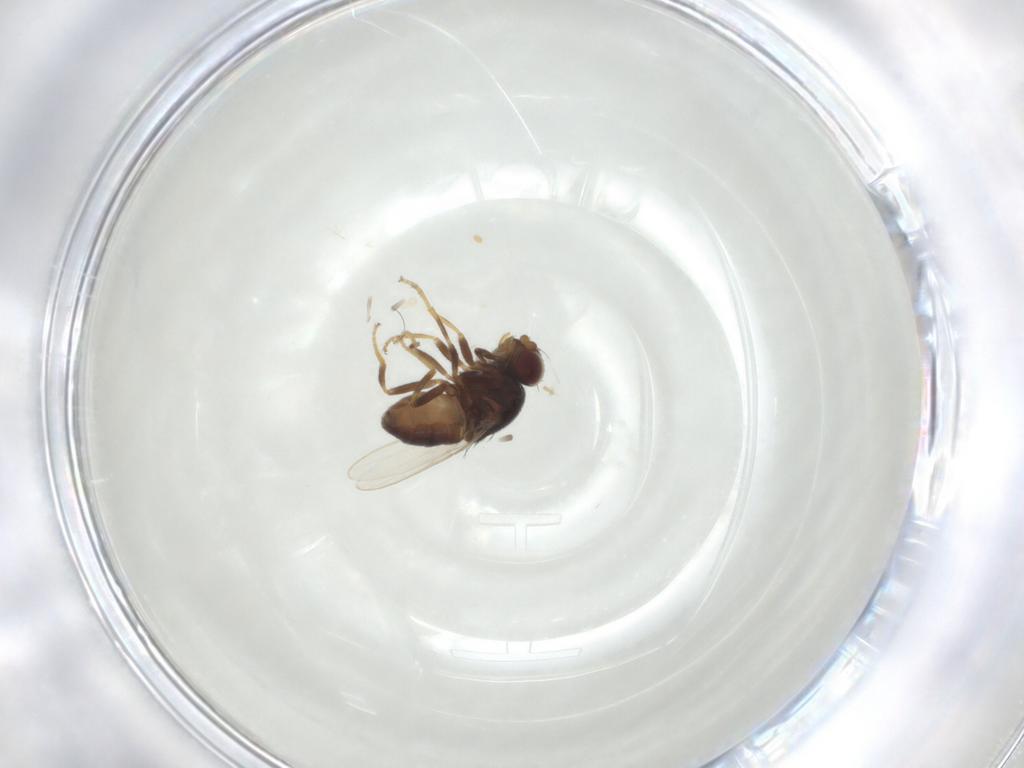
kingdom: Animalia
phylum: Arthropoda
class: Insecta
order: Diptera
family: Chloropidae
